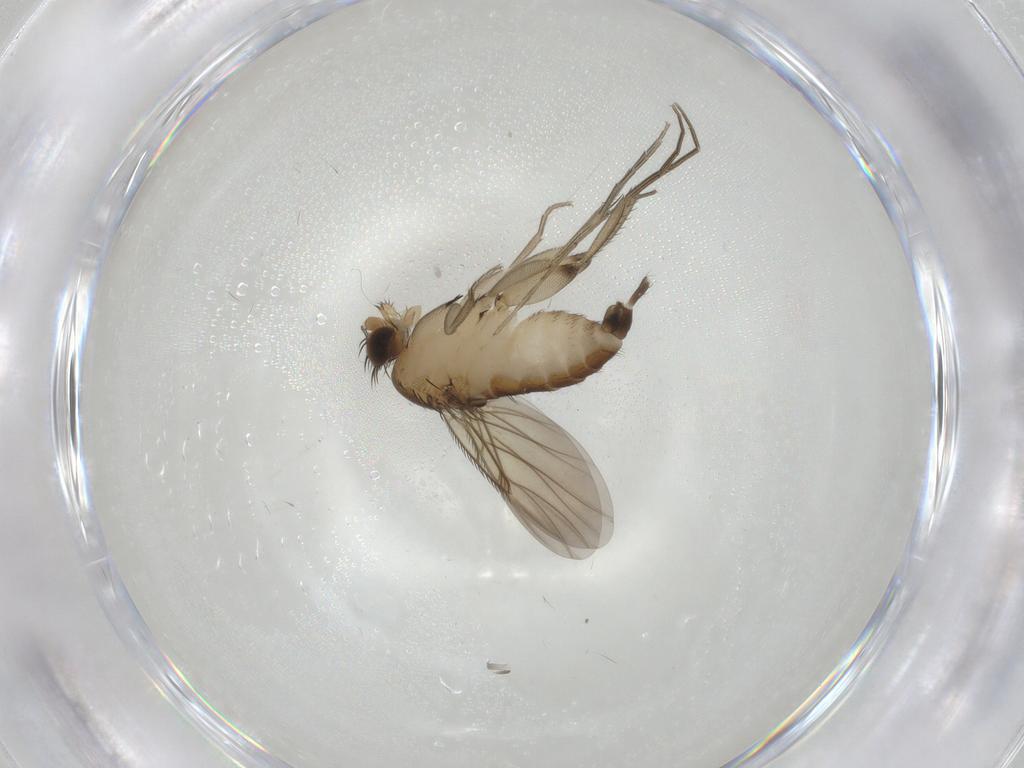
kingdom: Animalia
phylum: Arthropoda
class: Insecta
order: Diptera
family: Phoridae
